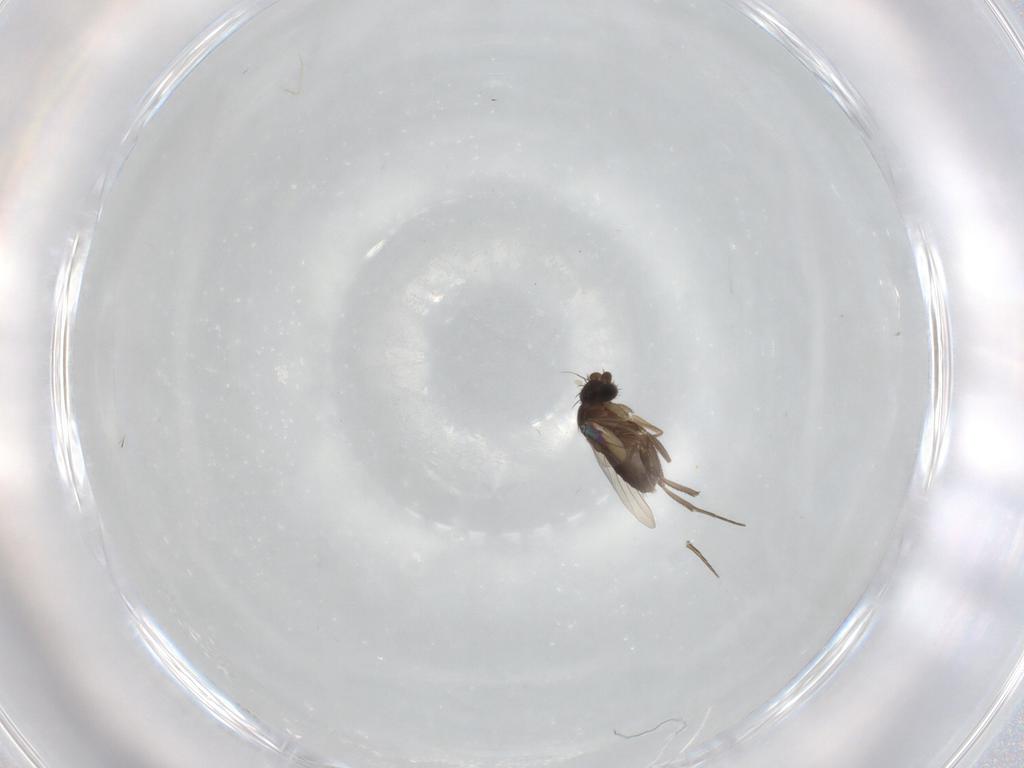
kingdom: Animalia
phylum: Arthropoda
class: Insecta
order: Diptera
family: Phoridae
